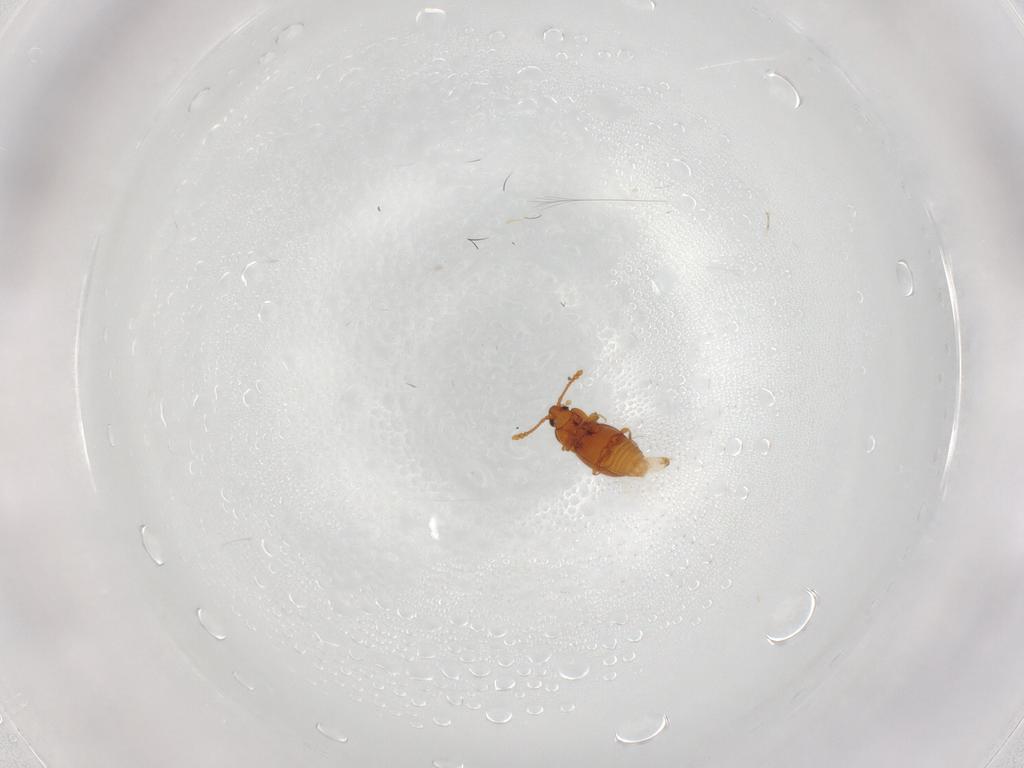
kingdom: Animalia
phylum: Arthropoda
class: Insecta
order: Coleoptera
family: Staphylinidae
